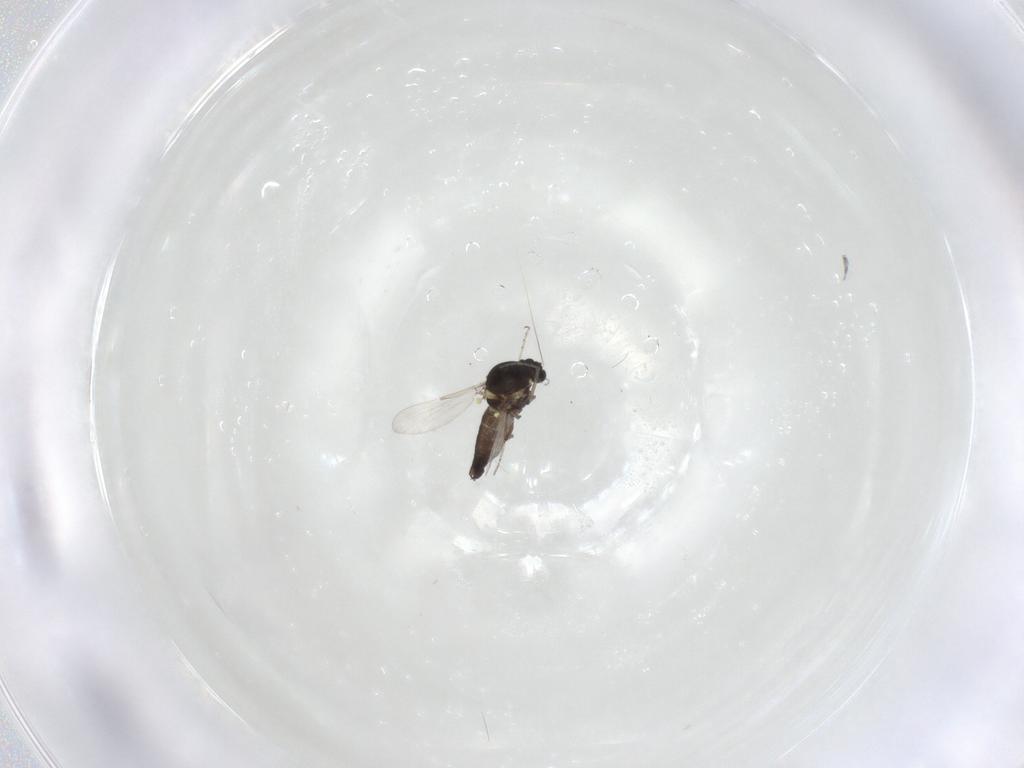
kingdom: Animalia
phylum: Arthropoda
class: Insecta
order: Diptera
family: Ceratopogonidae
